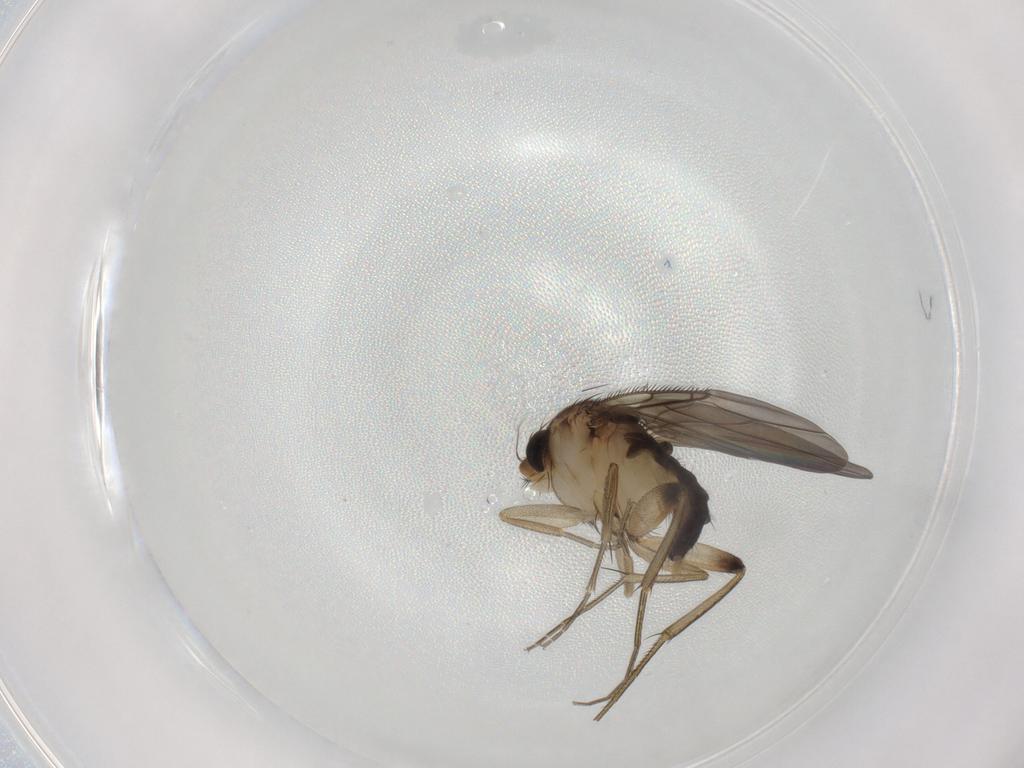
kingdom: Animalia
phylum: Arthropoda
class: Insecta
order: Diptera
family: Phoridae
